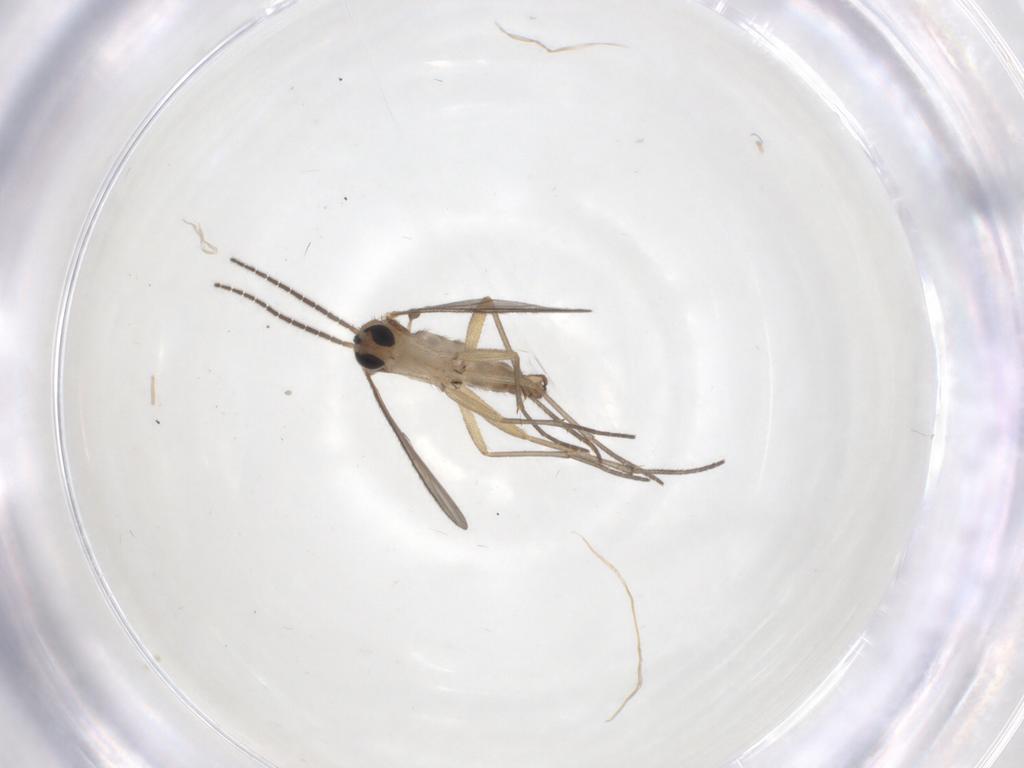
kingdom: Animalia
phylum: Arthropoda
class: Insecta
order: Diptera
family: Phoridae
